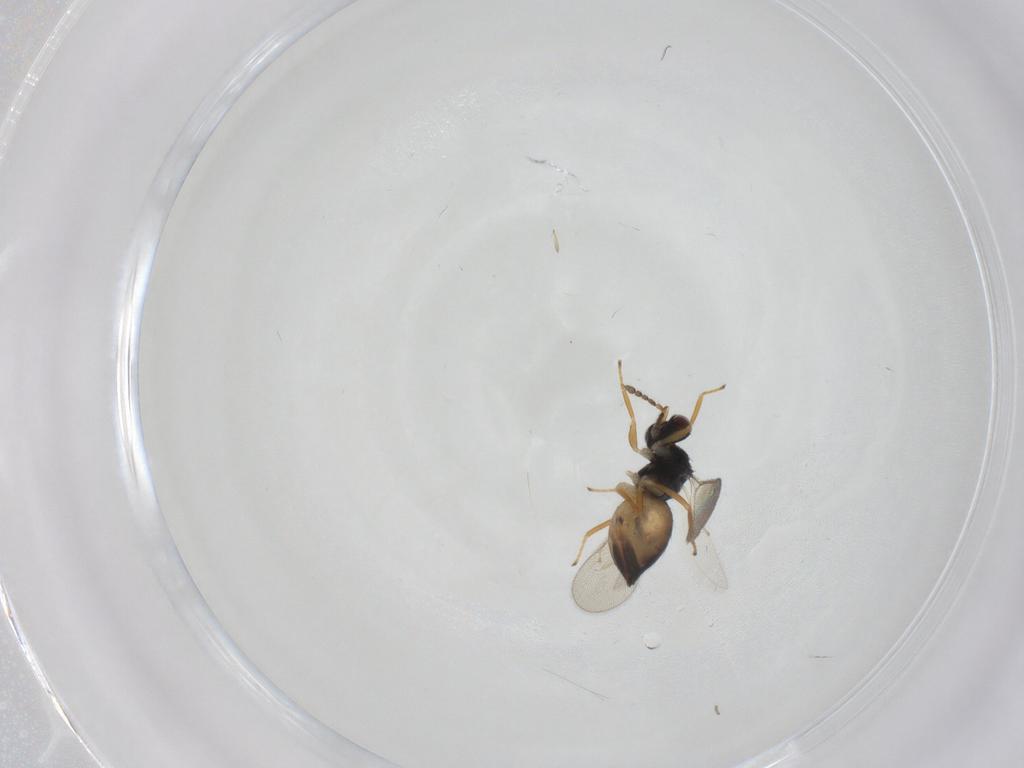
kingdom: Animalia
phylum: Arthropoda
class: Insecta
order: Hymenoptera
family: Eulophidae
